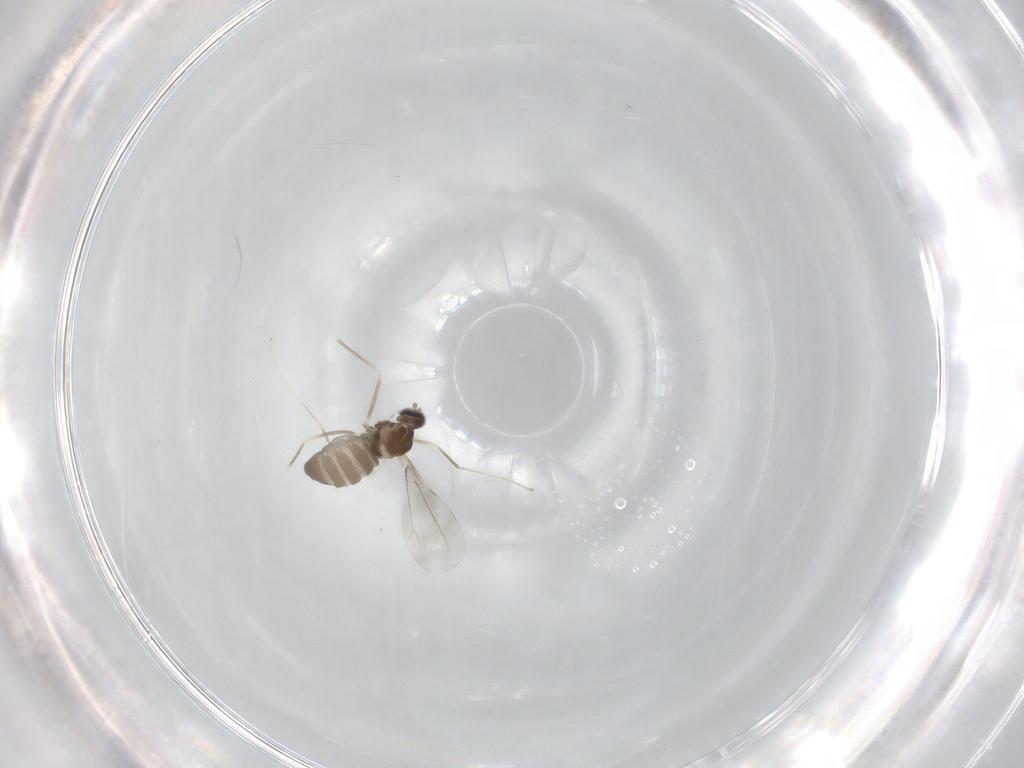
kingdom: Animalia
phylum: Arthropoda
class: Insecta
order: Diptera
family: Cecidomyiidae
